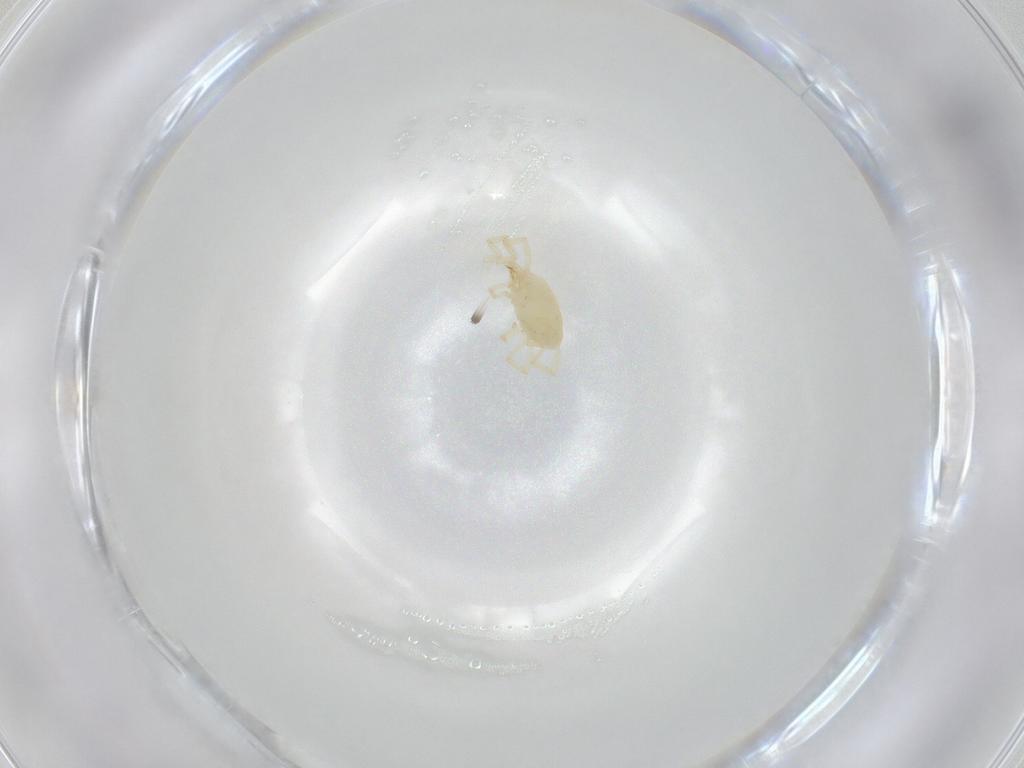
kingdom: Animalia
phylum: Arthropoda
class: Arachnida
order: Trombidiformes
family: Erythraeidae
